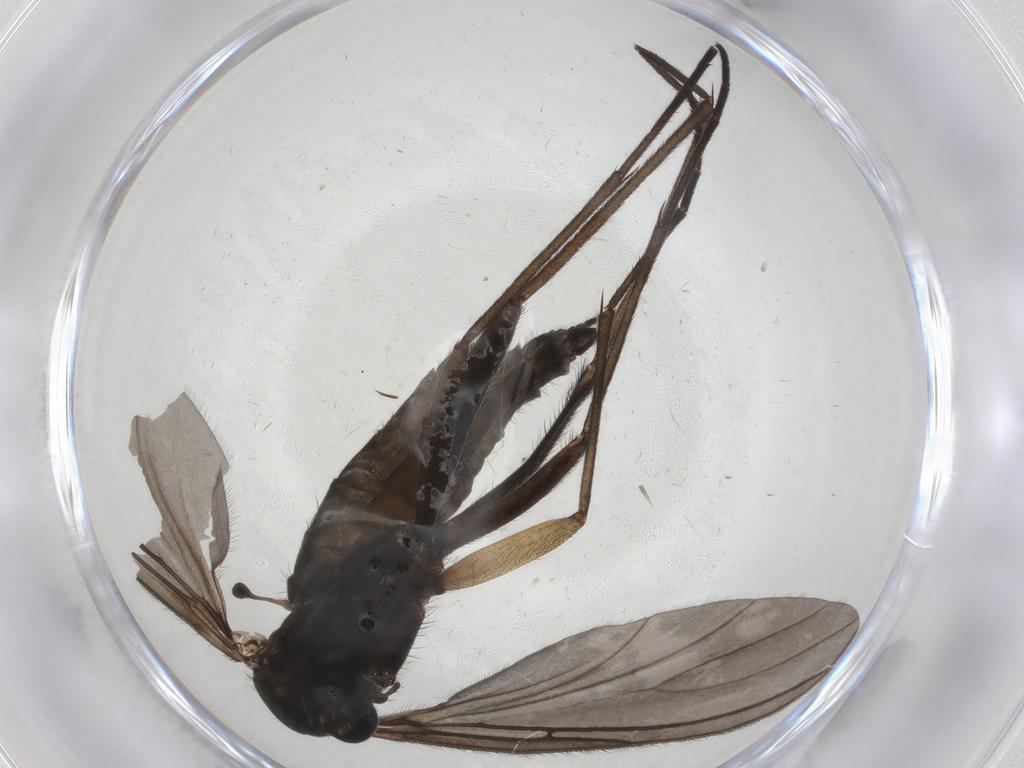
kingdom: Animalia
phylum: Arthropoda
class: Insecta
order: Diptera
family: Sciaridae
